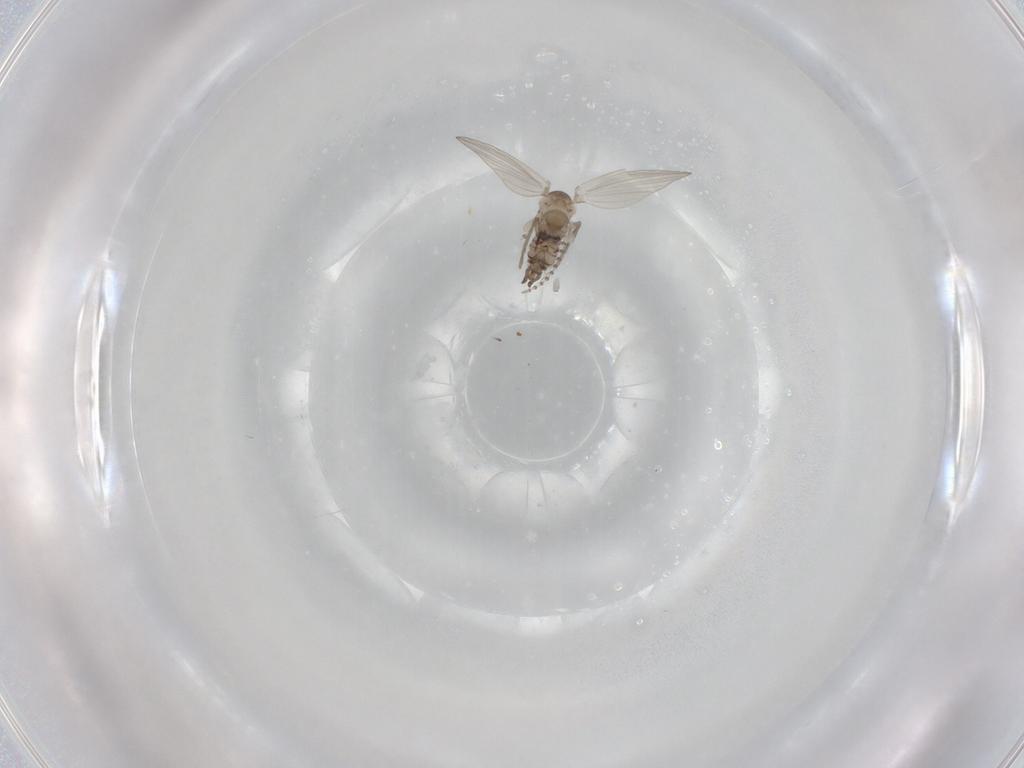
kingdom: Animalia
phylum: Arthropoda
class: Insecta
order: Diptera
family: Psychodidae
